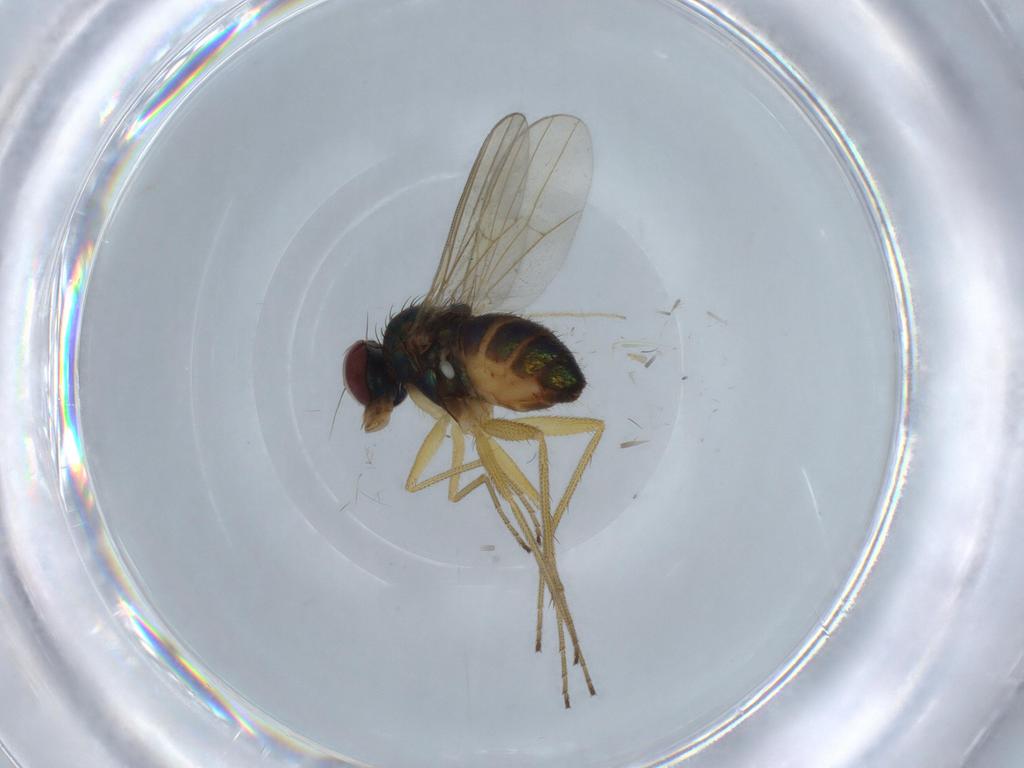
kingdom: Animalia
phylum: Arthropoda
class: Insecta
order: Diptera
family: Dolichopodidae
